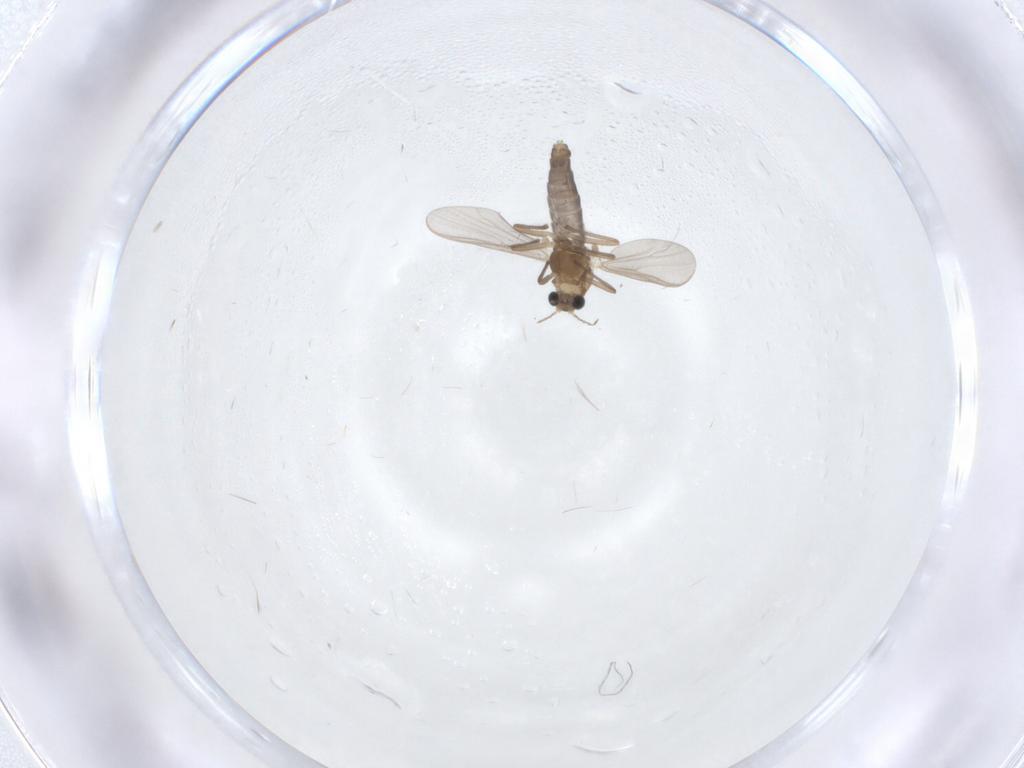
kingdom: Animalia
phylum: Arthropoda
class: Insecta
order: Diptera
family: Chironomidae
